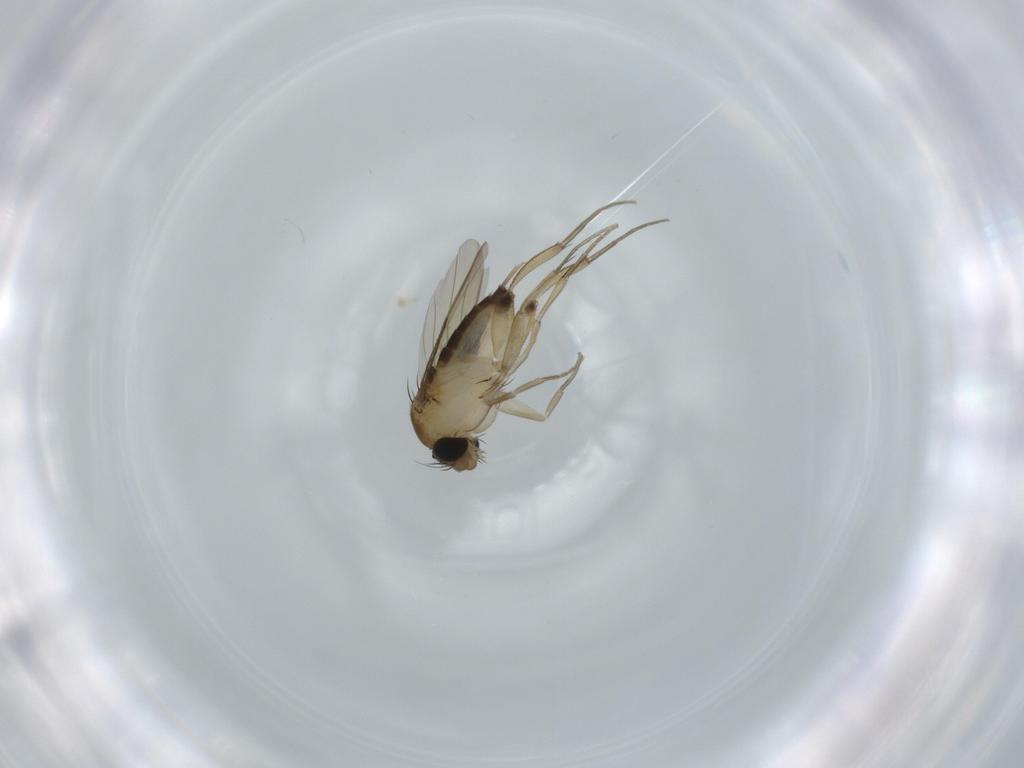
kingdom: Animalia
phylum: Arthropoda
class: Insecta
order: Diptera
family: Phoridae
